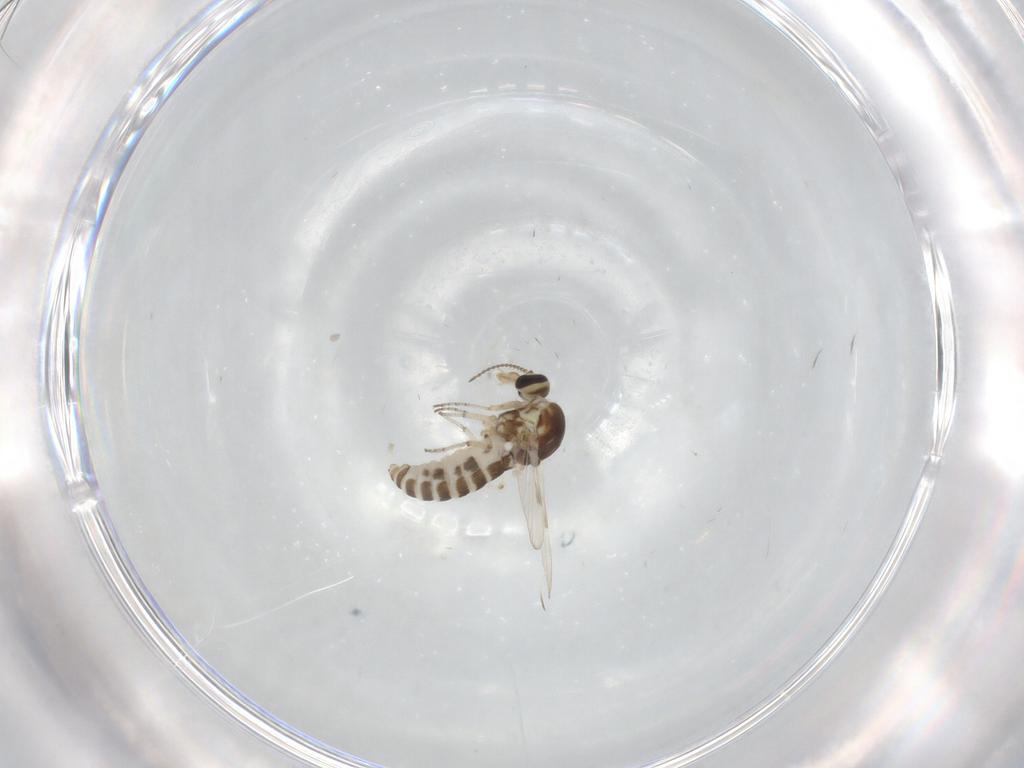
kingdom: Animalia
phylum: Arthropoda
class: Insecta
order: Diptera
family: Ceratopogonidae
